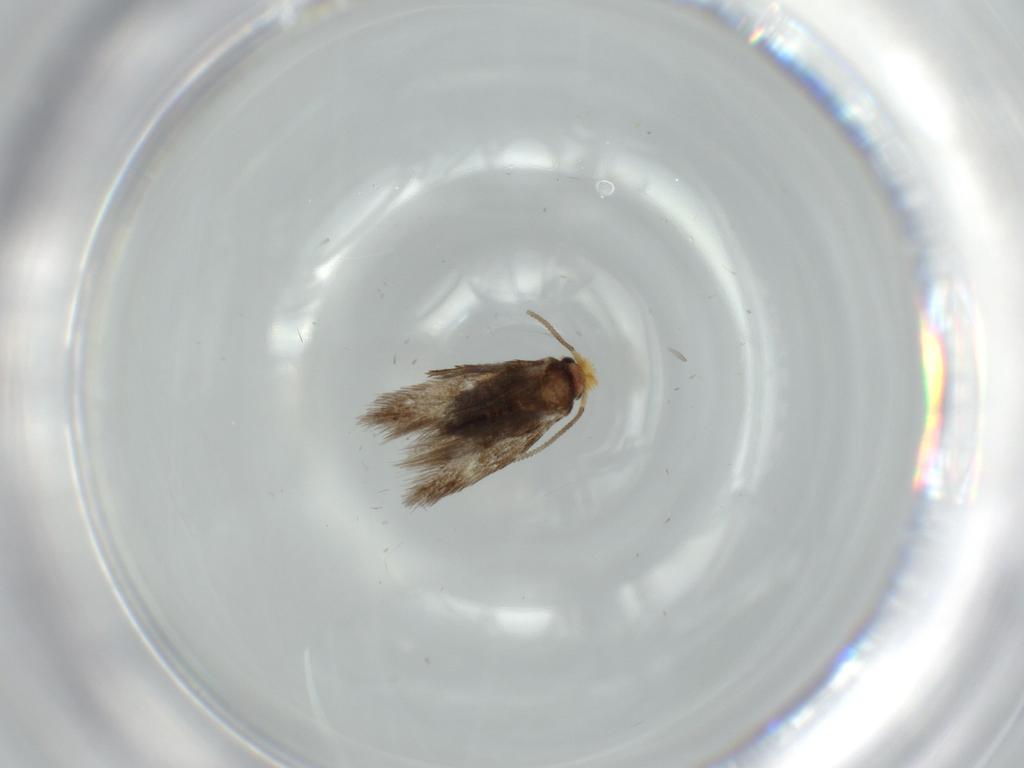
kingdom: Animalia
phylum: Arthropoda
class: Insecta
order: Lepidoptera
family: Nepticulidae
